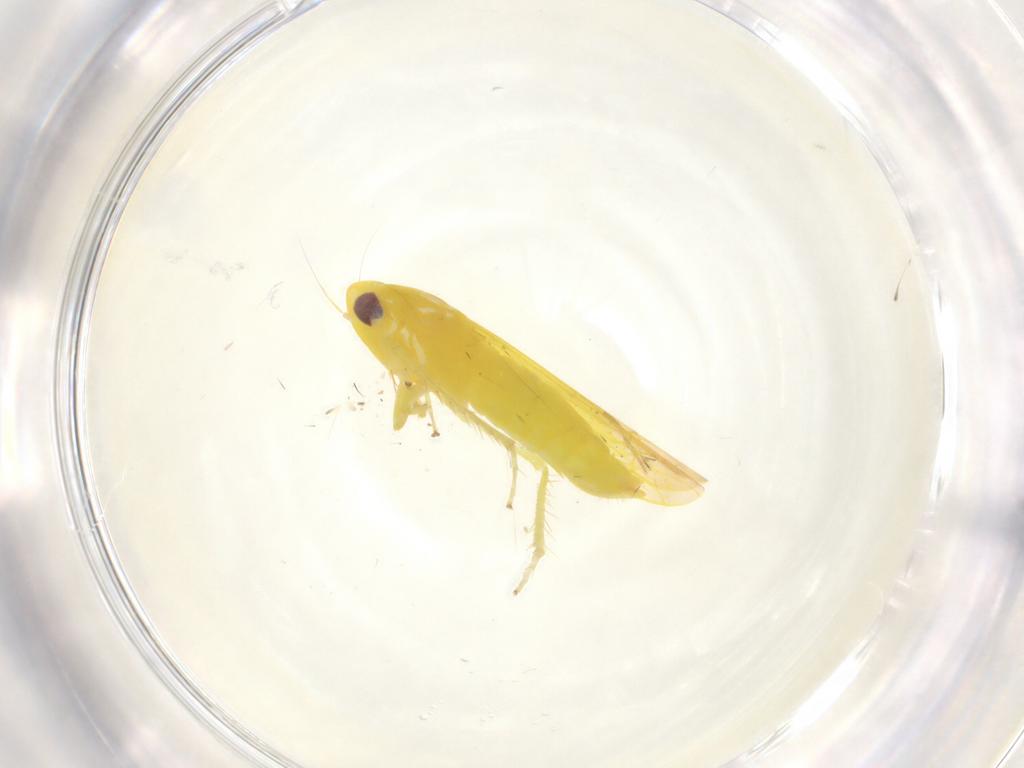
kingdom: Animalia
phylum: Arthropoda
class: Insecta
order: Hemiptera
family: Cicadellidae
